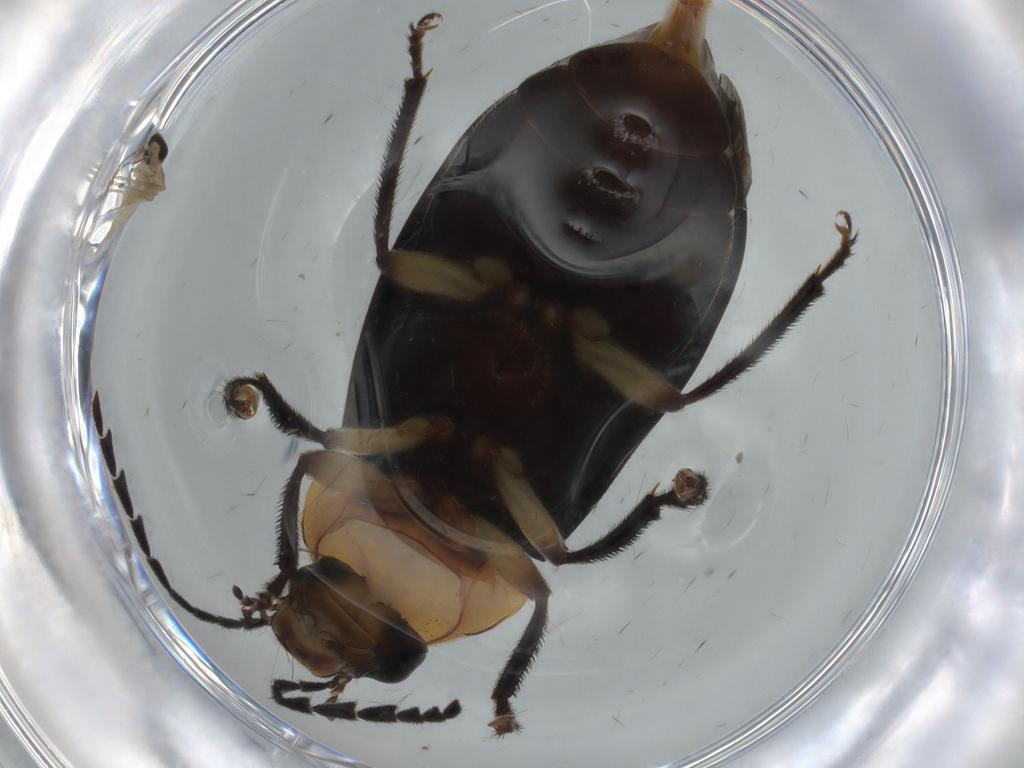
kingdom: Animalia
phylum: Arthropoda
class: Insecta
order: Coleoptera
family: Ptilodactylidae
